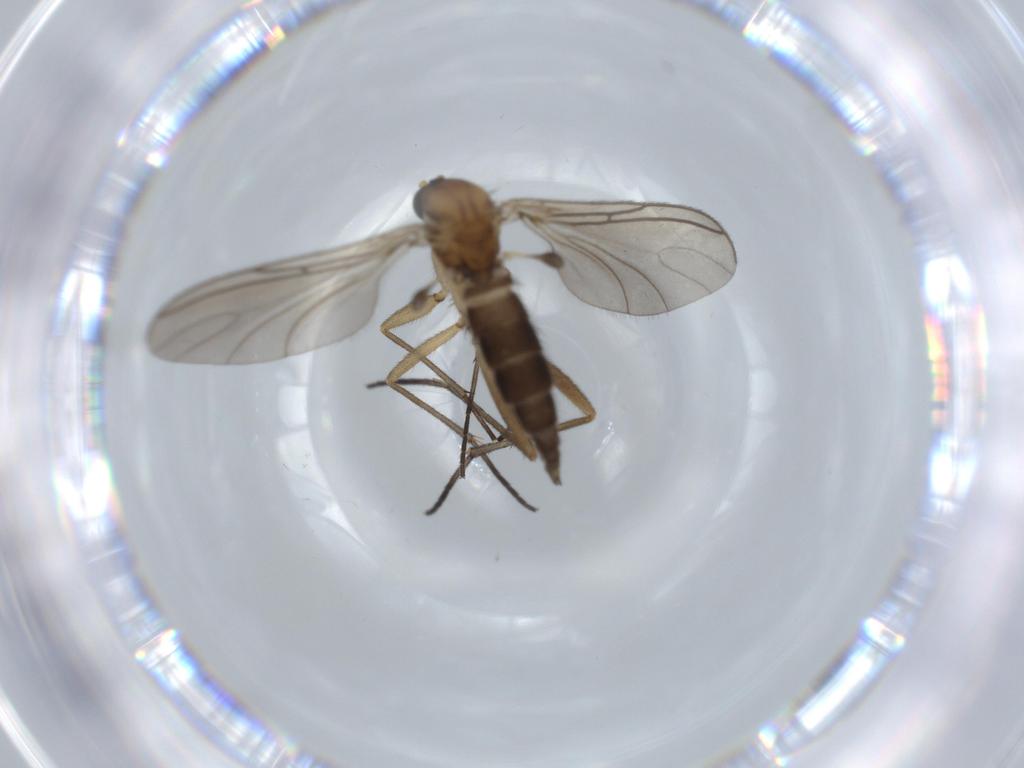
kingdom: Animalia
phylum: Arthropoda
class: Insecta
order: Diptera
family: Sciaridae
